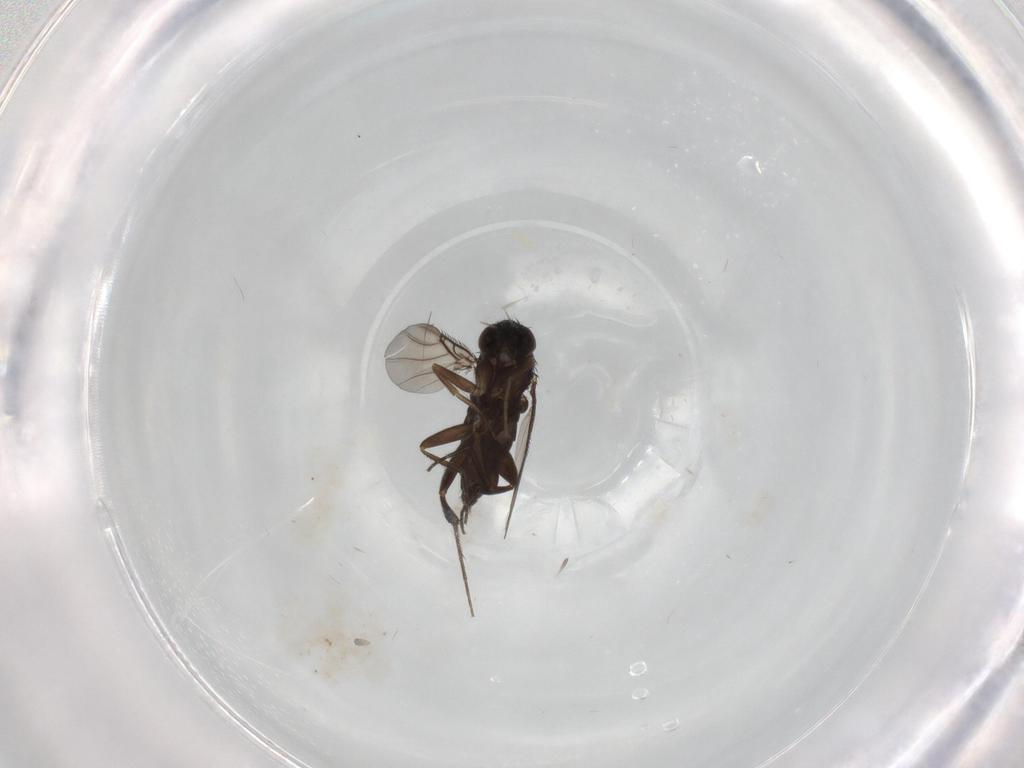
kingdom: Animalia
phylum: Arthropoda
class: Insecta
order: Diptera
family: Phoridae
